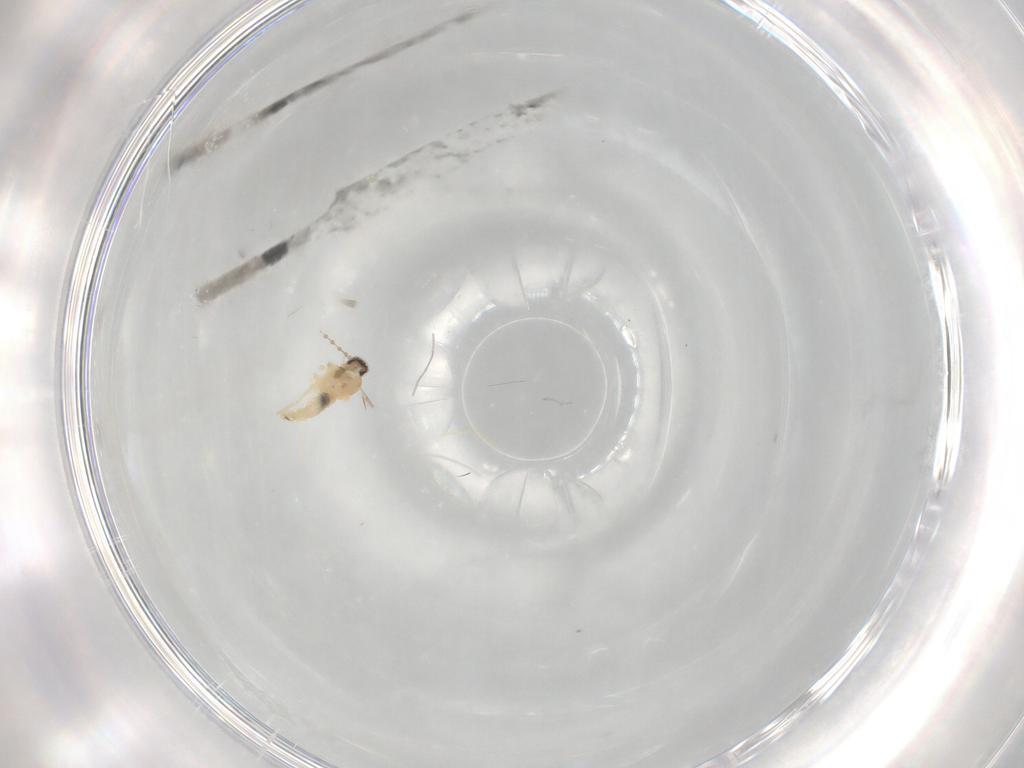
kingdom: Animalia
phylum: Arthropoda
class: Insecta
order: Diptera
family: Cecidomyiidae
